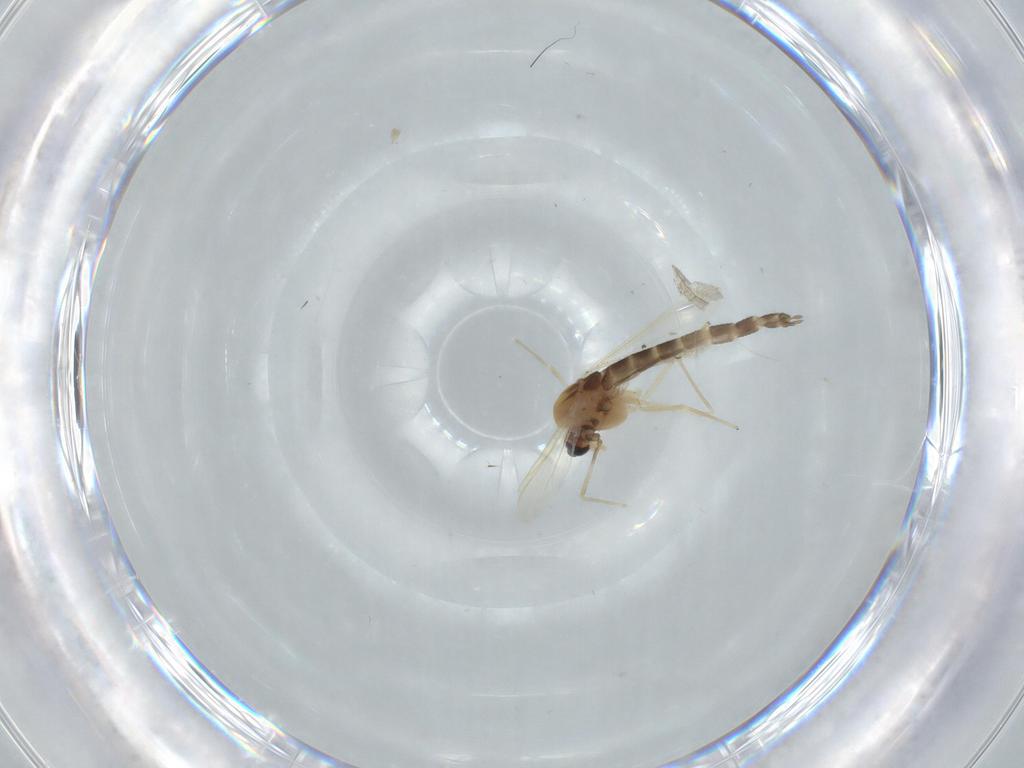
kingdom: Animalia
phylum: Arthropoda
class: Insecta
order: Diptera
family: Chironomidae
